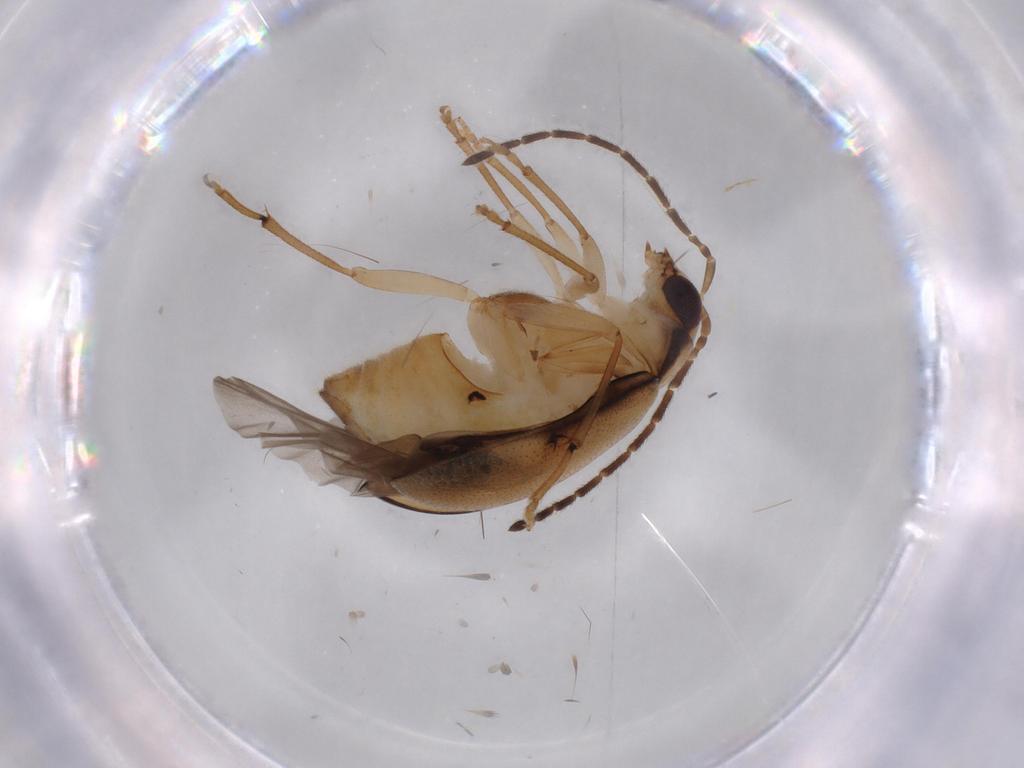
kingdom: Animalia
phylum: Arthropoda
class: Insecta
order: Coleoptera
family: Chrysomelidae
